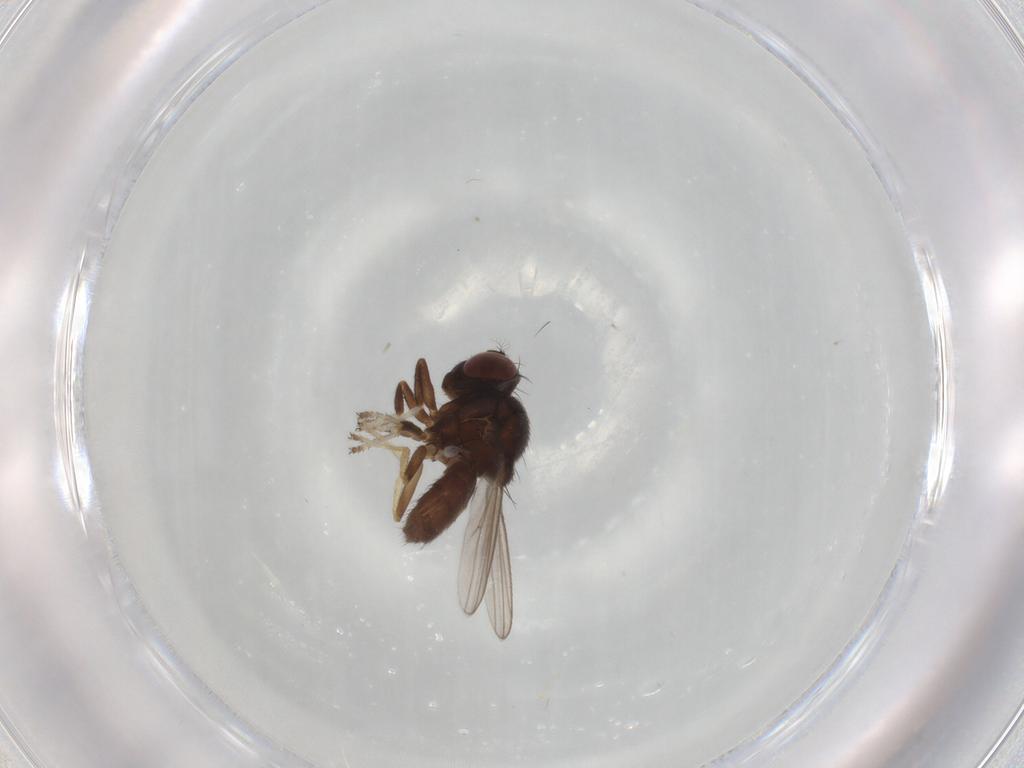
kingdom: Animalia
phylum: Arthropoda
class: Insecta
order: Diptera
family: Ephydridae
